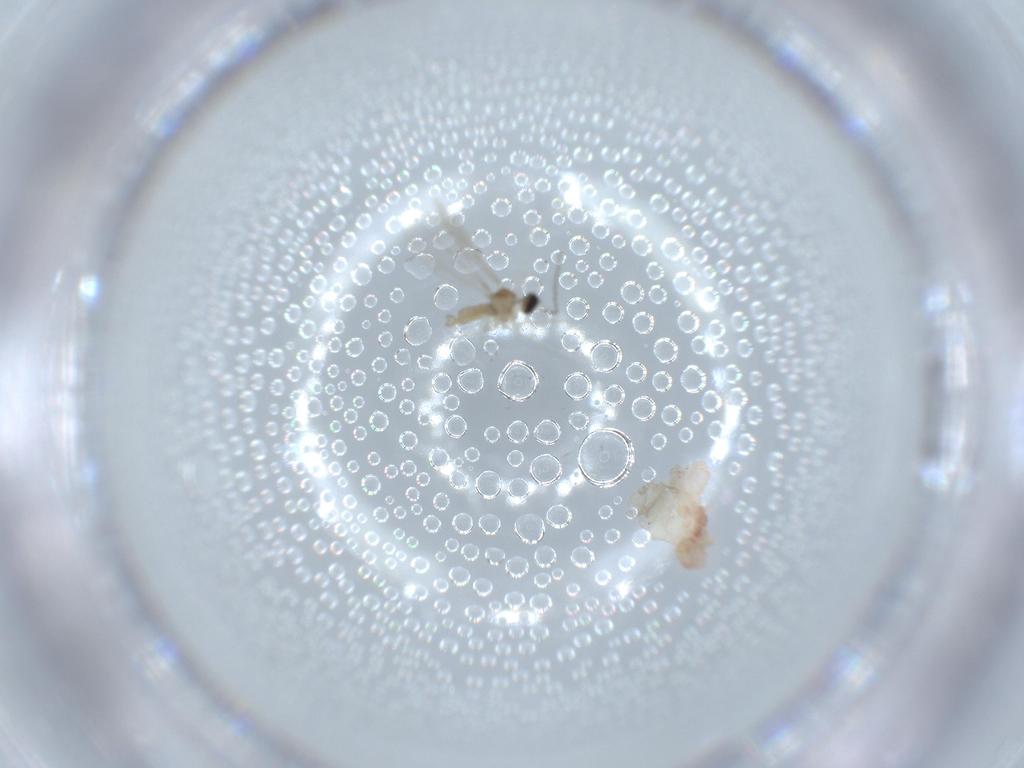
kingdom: Animalia
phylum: Arthropoda
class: Insecta
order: Diptera
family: Cecidomyiidae
